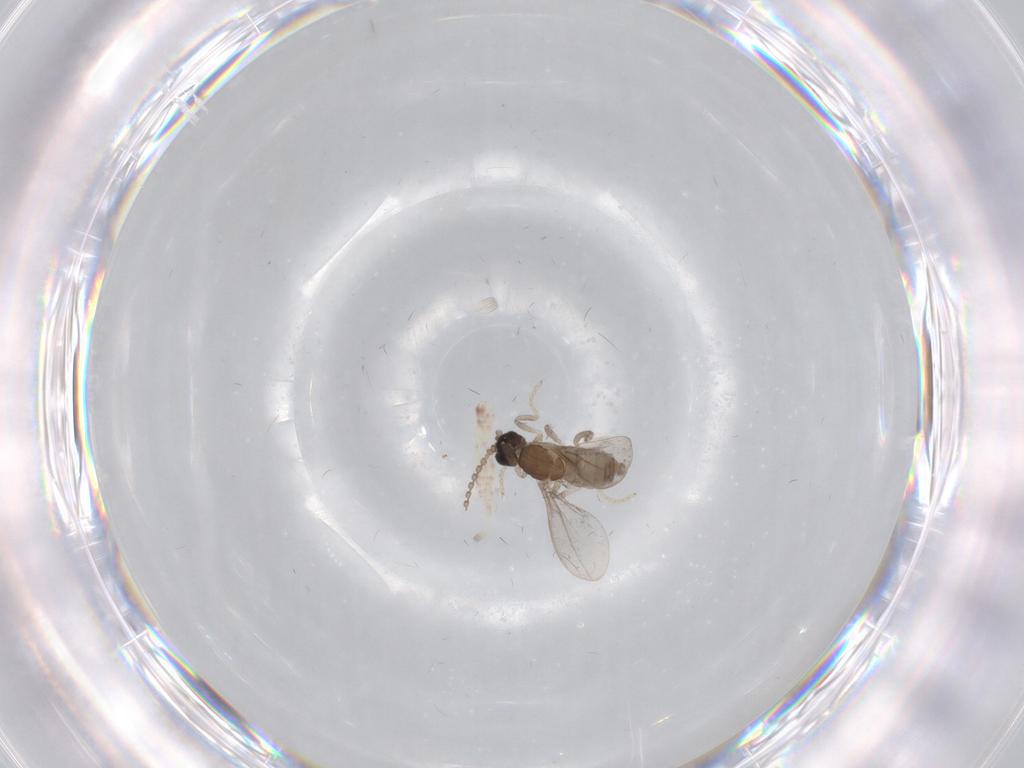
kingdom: Animalia
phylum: Arthropoda
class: Insecta
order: Diptera
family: Cecidomyiidae
